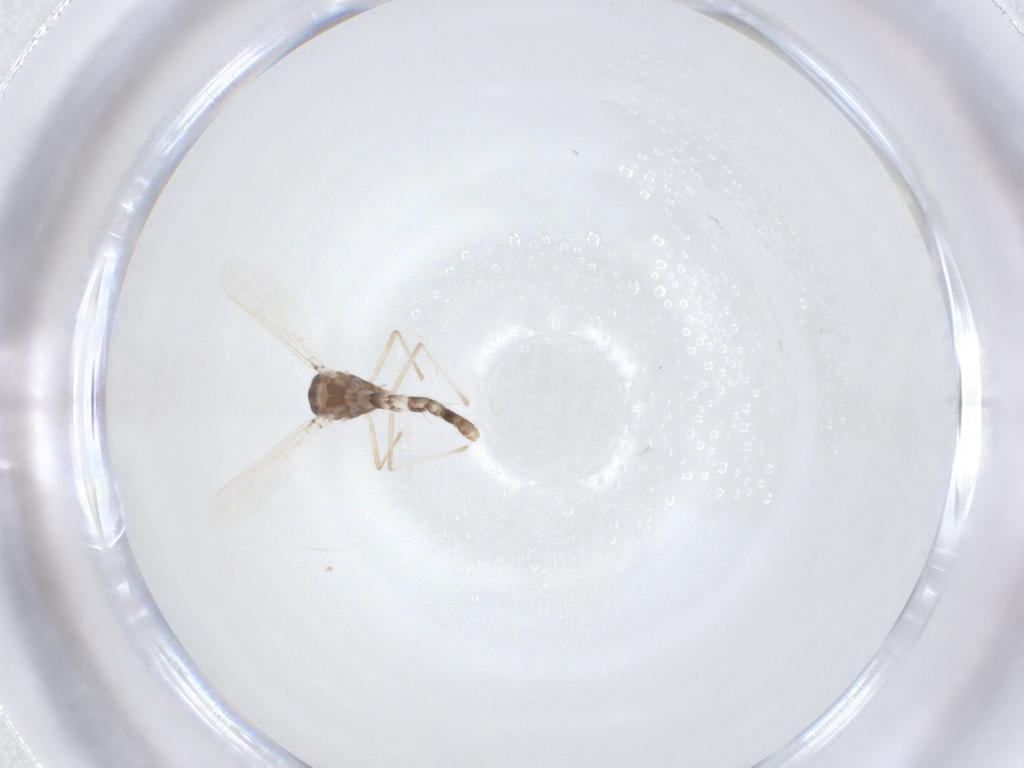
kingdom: Animalia
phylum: Arthropoda
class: Insecta
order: Diptera
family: Chironomidae
